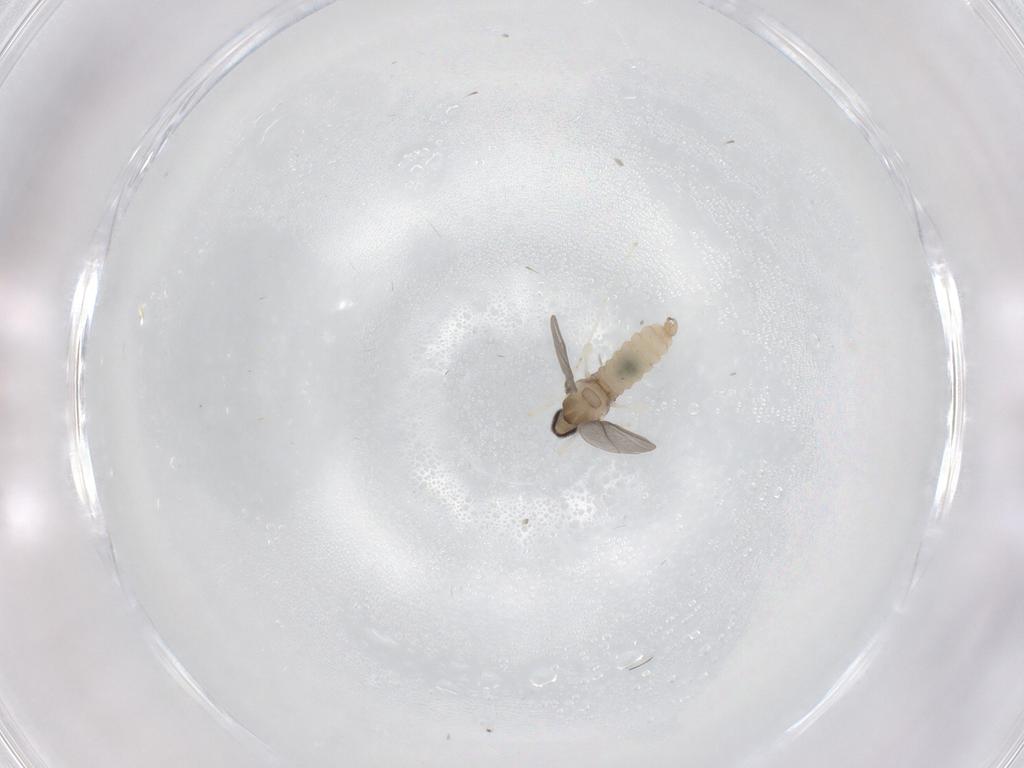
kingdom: Animalia
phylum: Arthropoda
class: Insecta
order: Diptera
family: Cecidomyiidae
